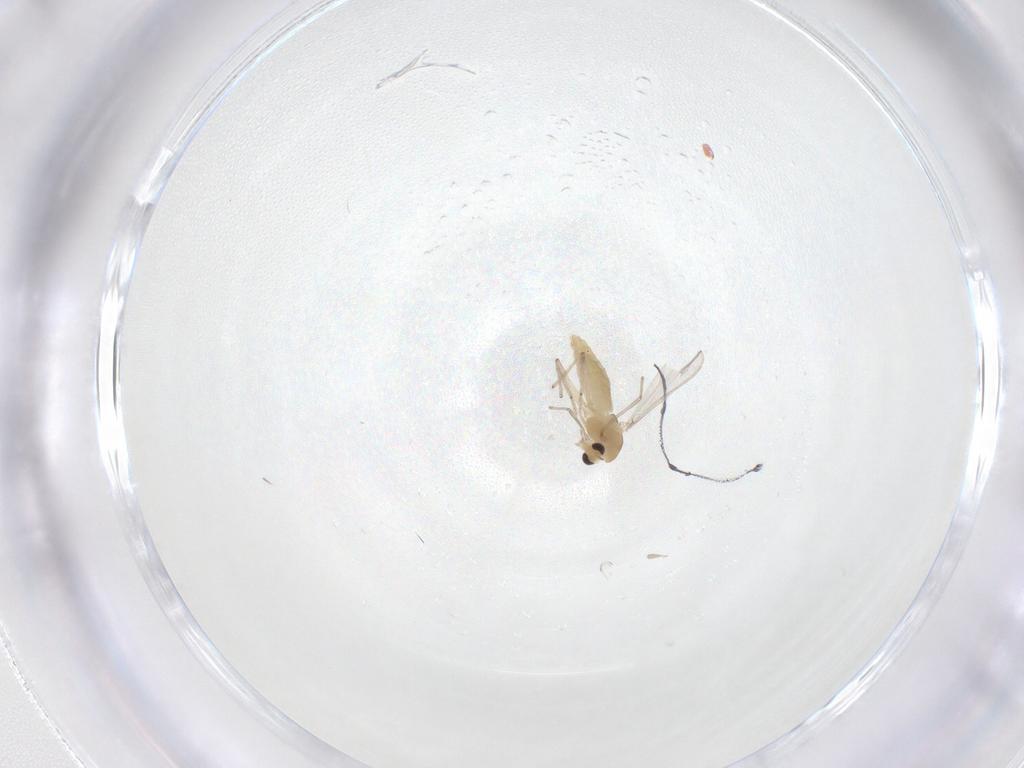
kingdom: Animalia
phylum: Arthropoda
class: Insecta
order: Diptera
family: Chironomidae
